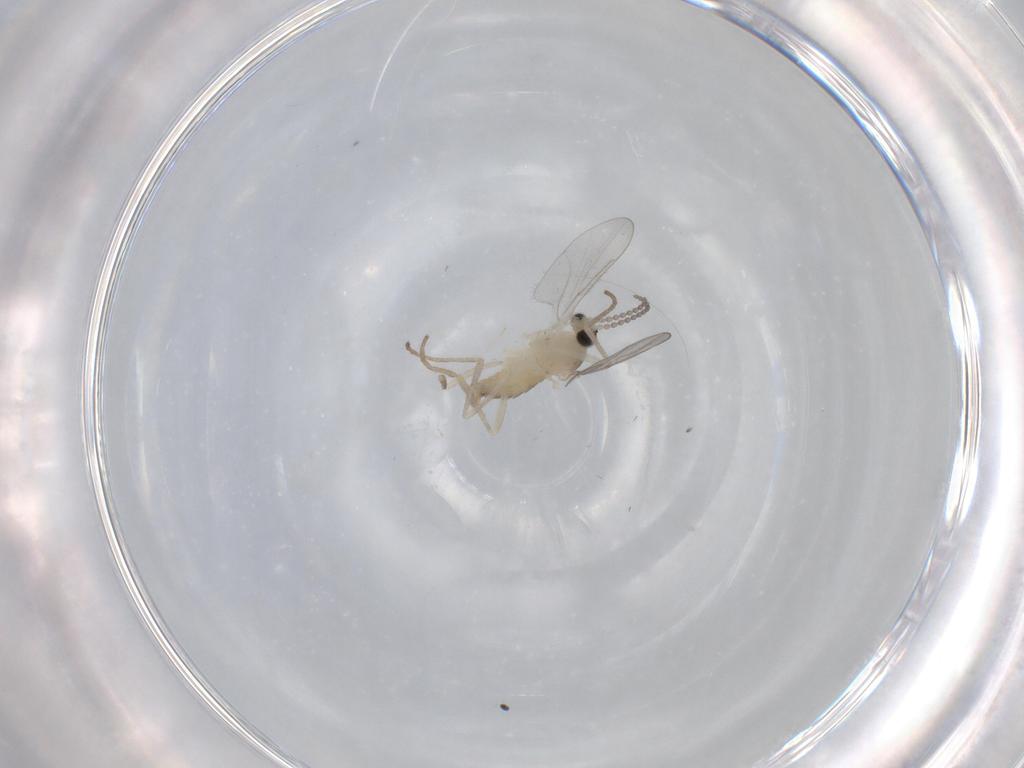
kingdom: Animalia
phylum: Arthropoda
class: Insecta
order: Diptera
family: Cecidomyiidae
